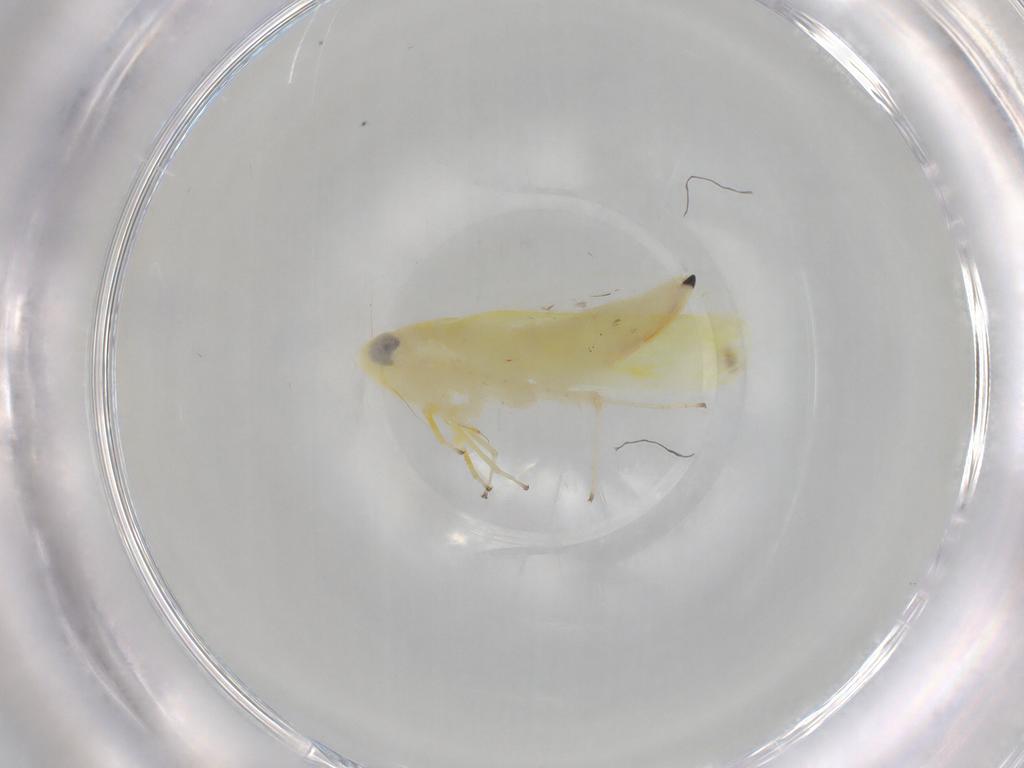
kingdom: Animalia
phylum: Arthropoda
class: Insecta
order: Hemiptera
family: Cicadellidae
